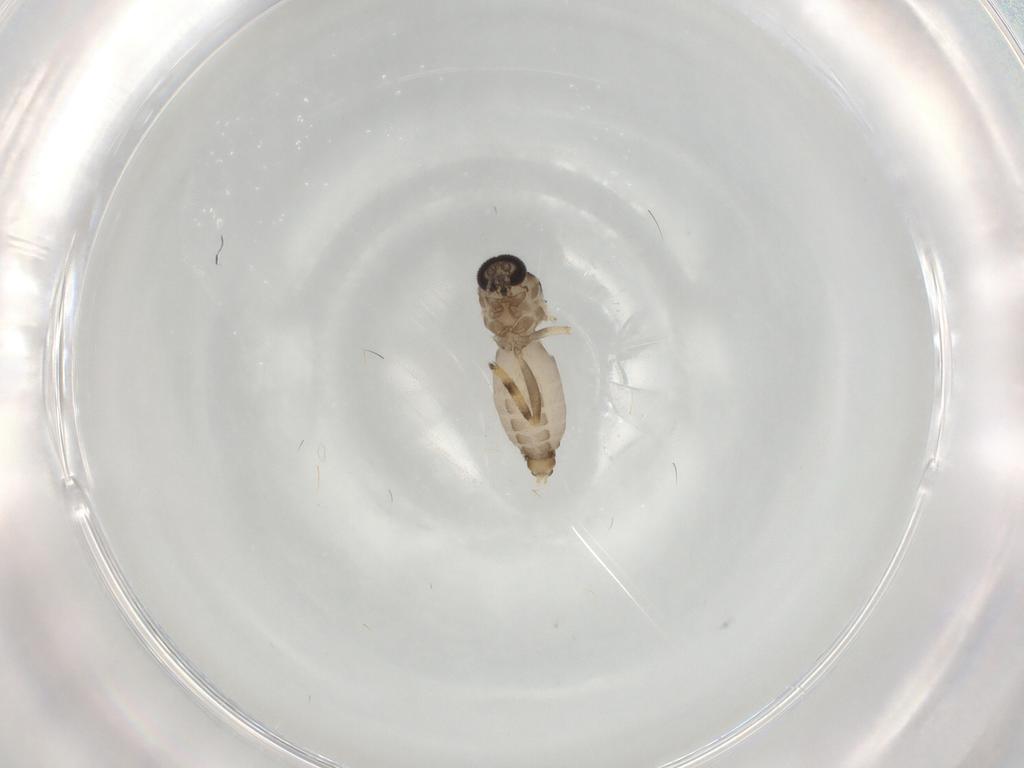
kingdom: Animalia
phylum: Arthropoda
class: Insecta
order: Diptera
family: Ceratopogonidae
